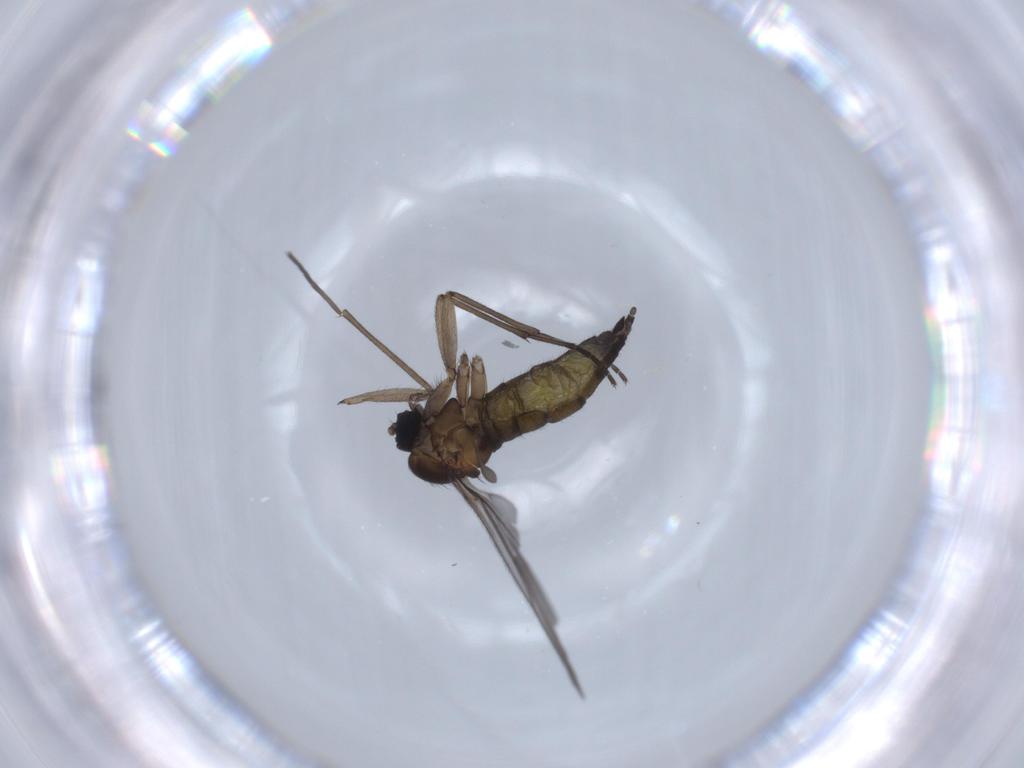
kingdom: Animalia
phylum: Arthropoda
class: Insecta
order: Diptera
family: Sciaridae
